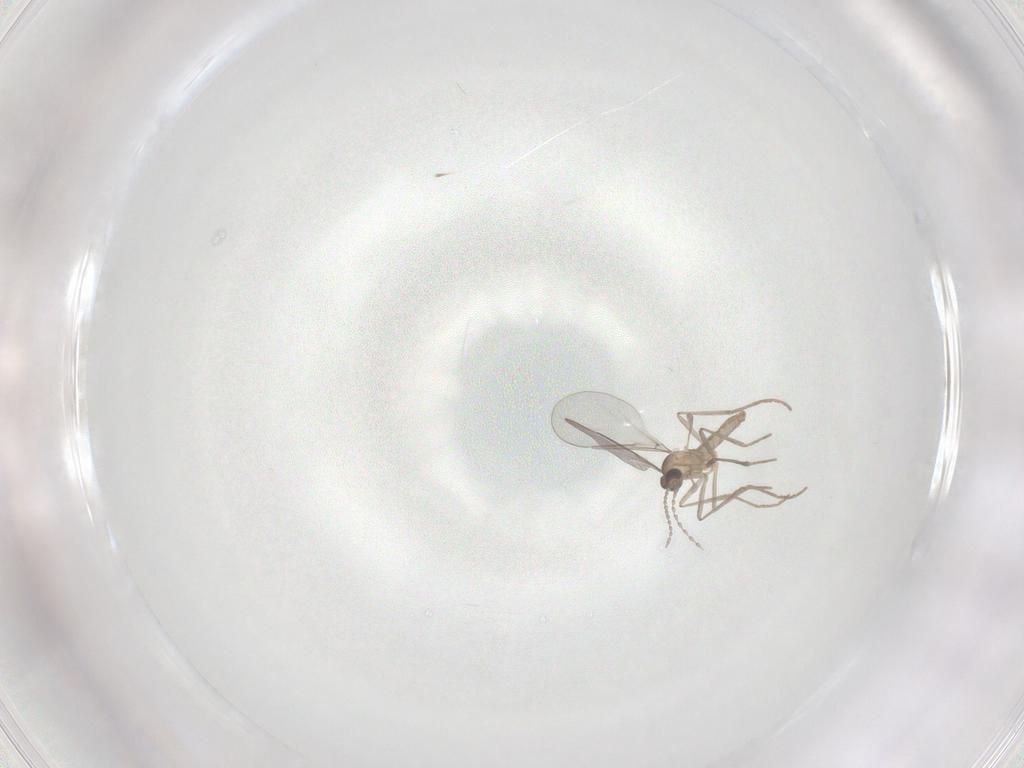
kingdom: Animalia
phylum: Arthropoda
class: Insecta
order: Diptera
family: Cecidomyiidae
